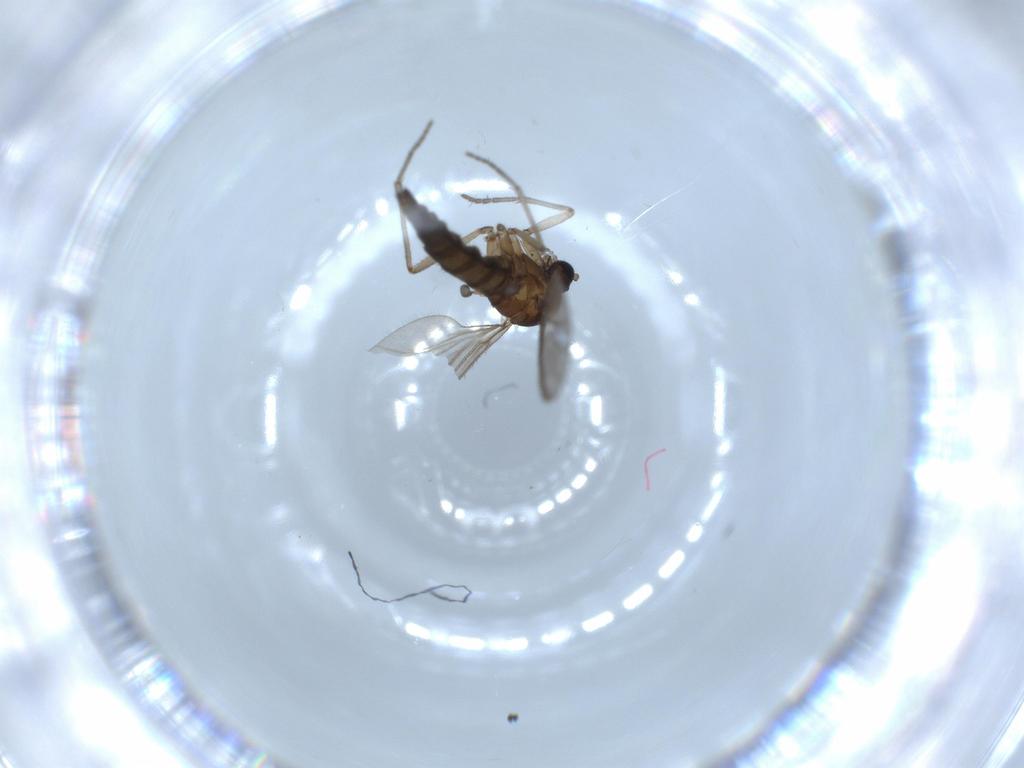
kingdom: Animalia
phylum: Arthropoda
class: Insecta
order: Diptera
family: Sciaridae
